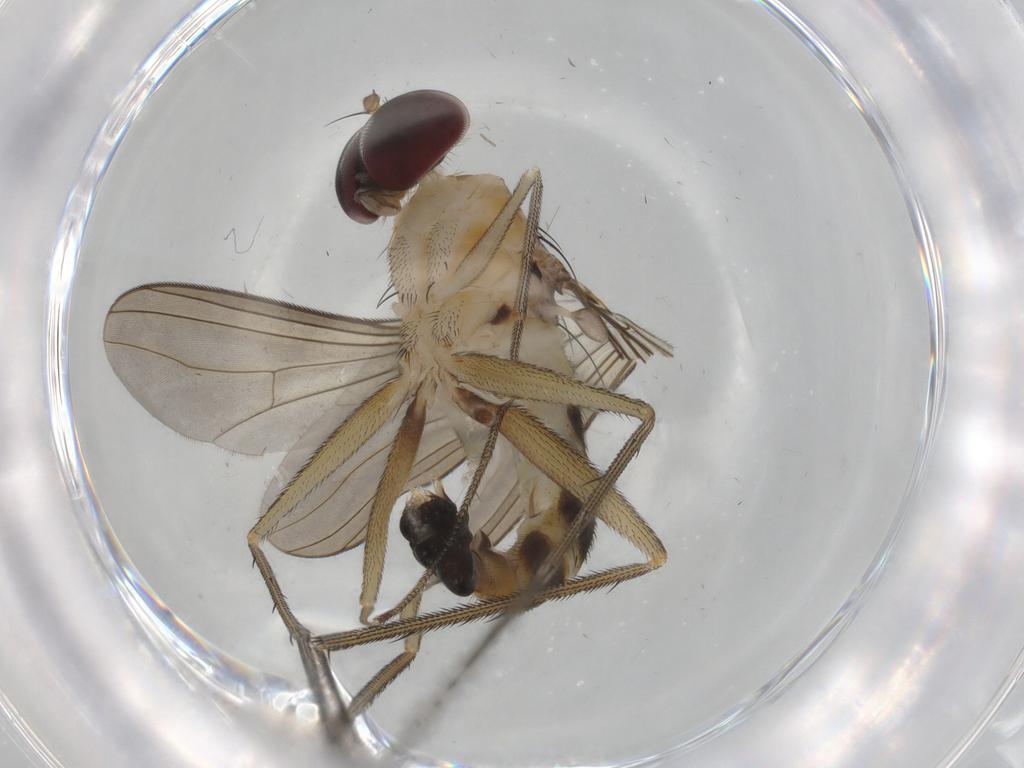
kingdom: Animalia
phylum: Arthropoda
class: Insecta
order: Diptera
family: Dolichopodidae
